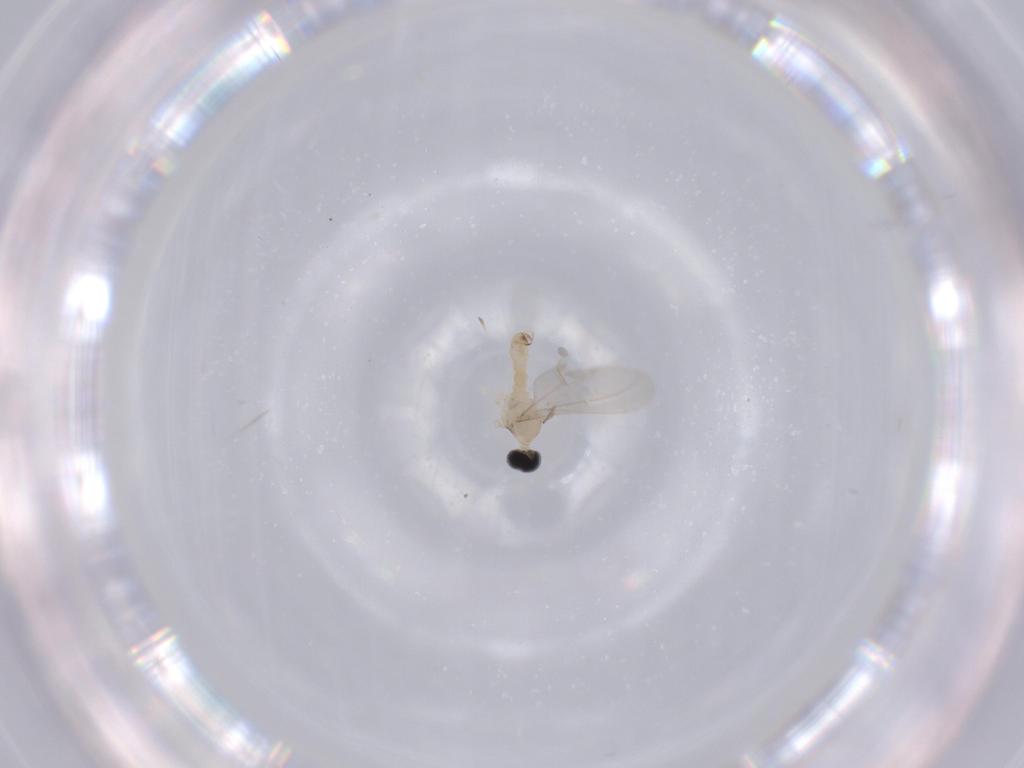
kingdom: Animalia
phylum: Arthropoda
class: Insecta
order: Diptera
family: Cecidomyiidae
